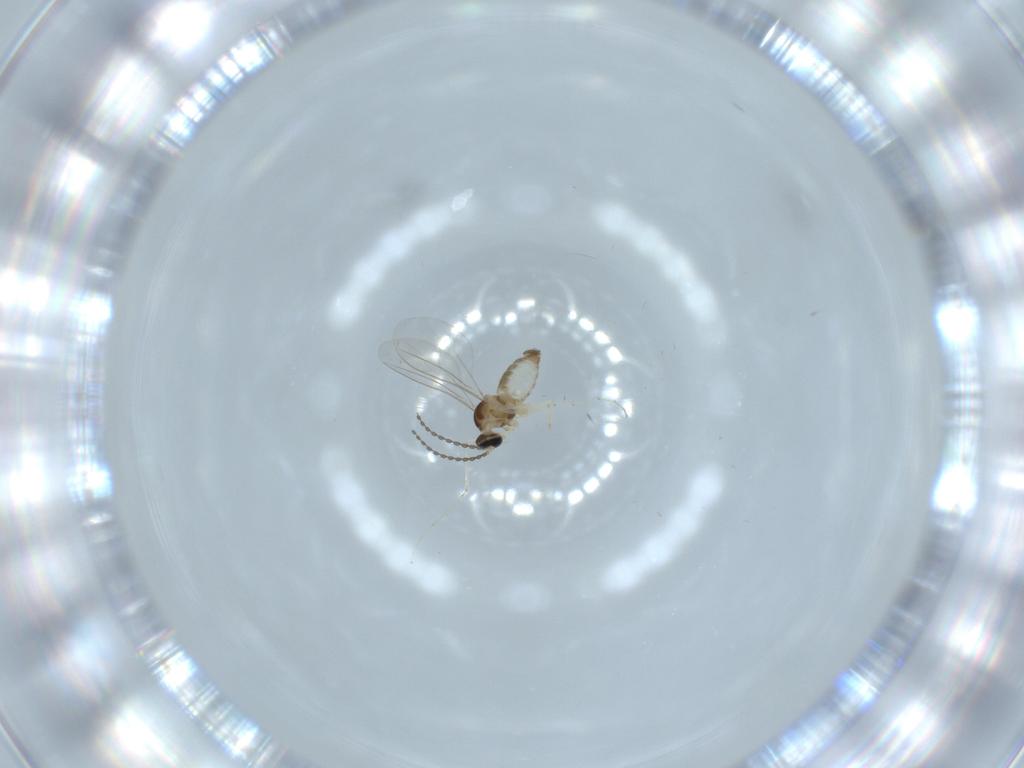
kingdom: Animalia
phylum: Arthropoda
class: Insecta
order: Diptera
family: Cecidomyiidae
